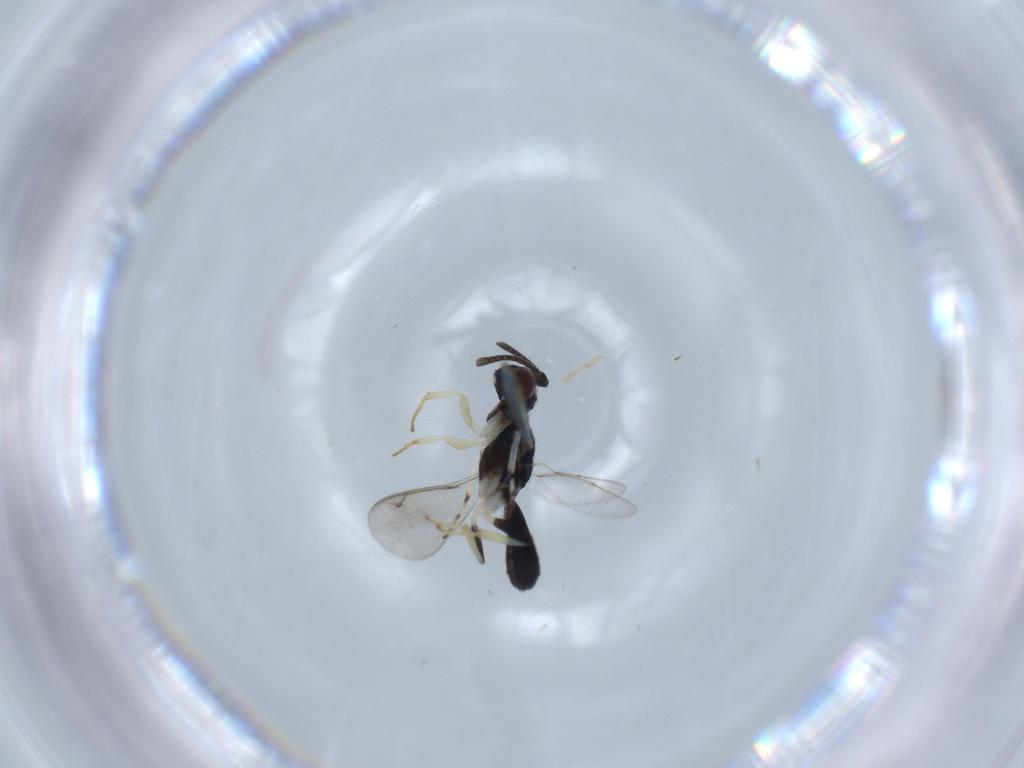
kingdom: Animalia
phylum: Arthropoda
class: Insecta
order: Hymenoptera
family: Eupelmidae
